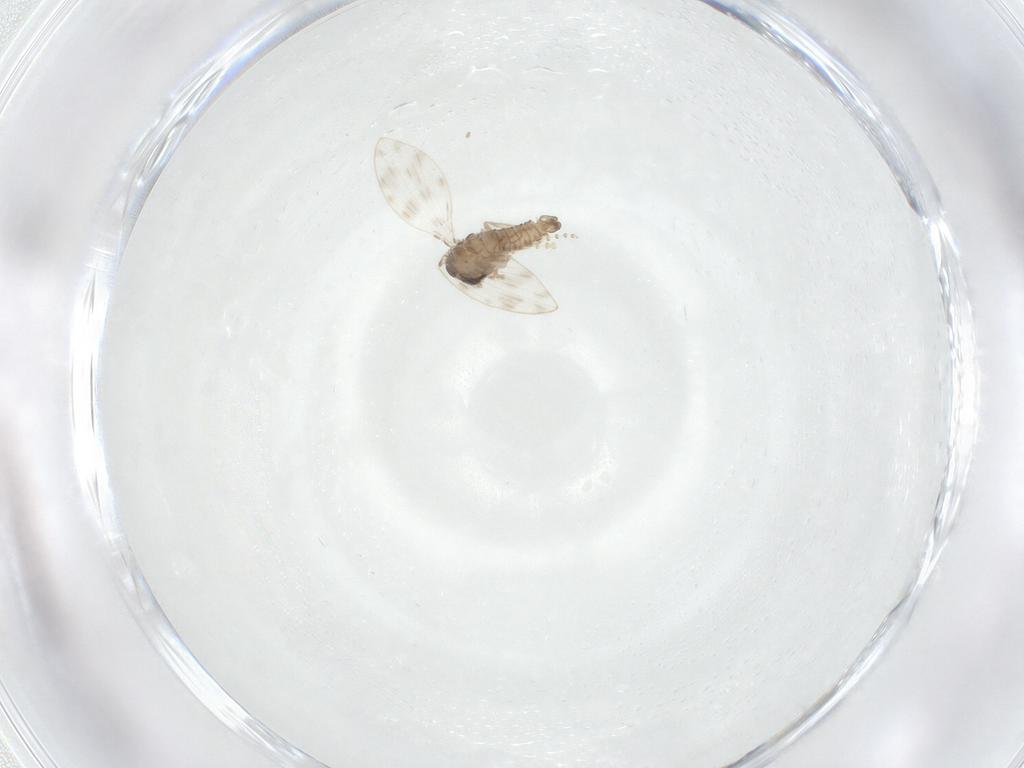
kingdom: Animalia
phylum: Arthropoda
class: Insecta
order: Diptera
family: Psychodidae
